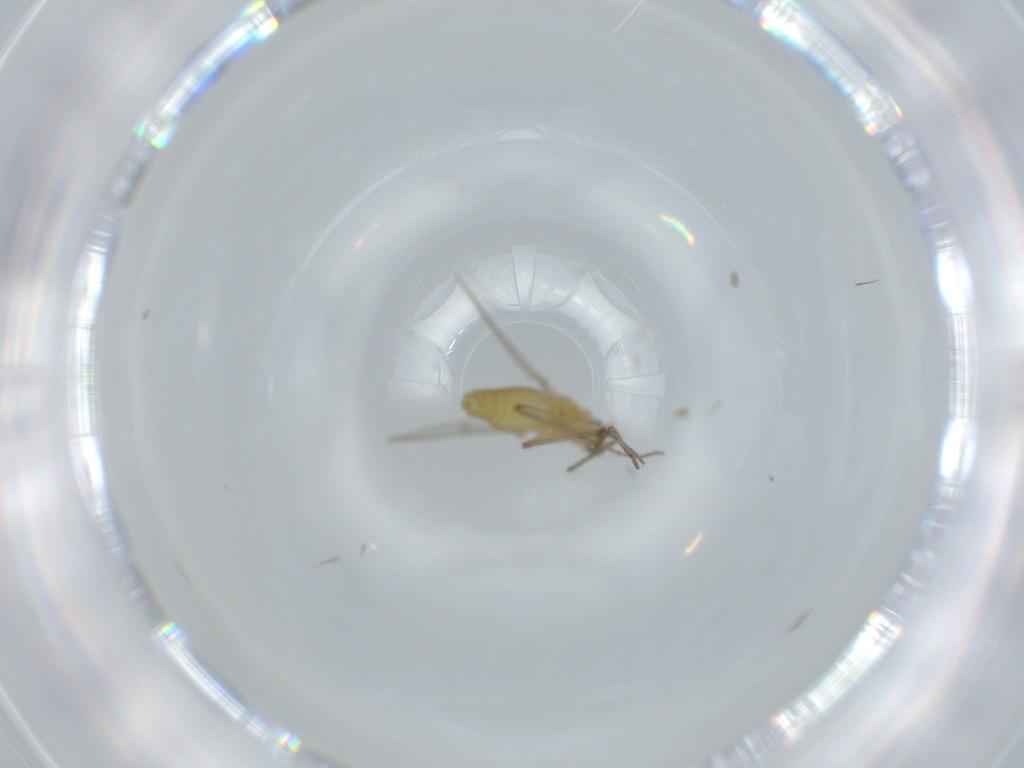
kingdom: Animalia
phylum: Arthropoda
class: Insecta
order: Diptera
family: Chironomidae
